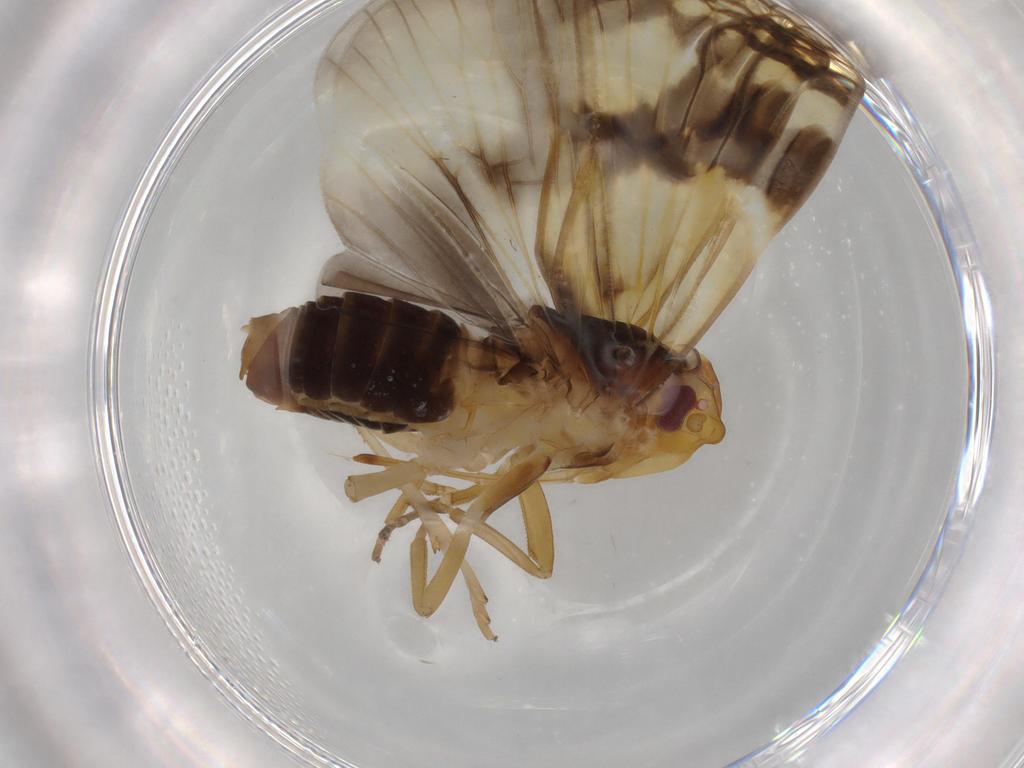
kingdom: Animalia
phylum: Arthropoda
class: Insecta
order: Hemiptera
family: Cixiidae
